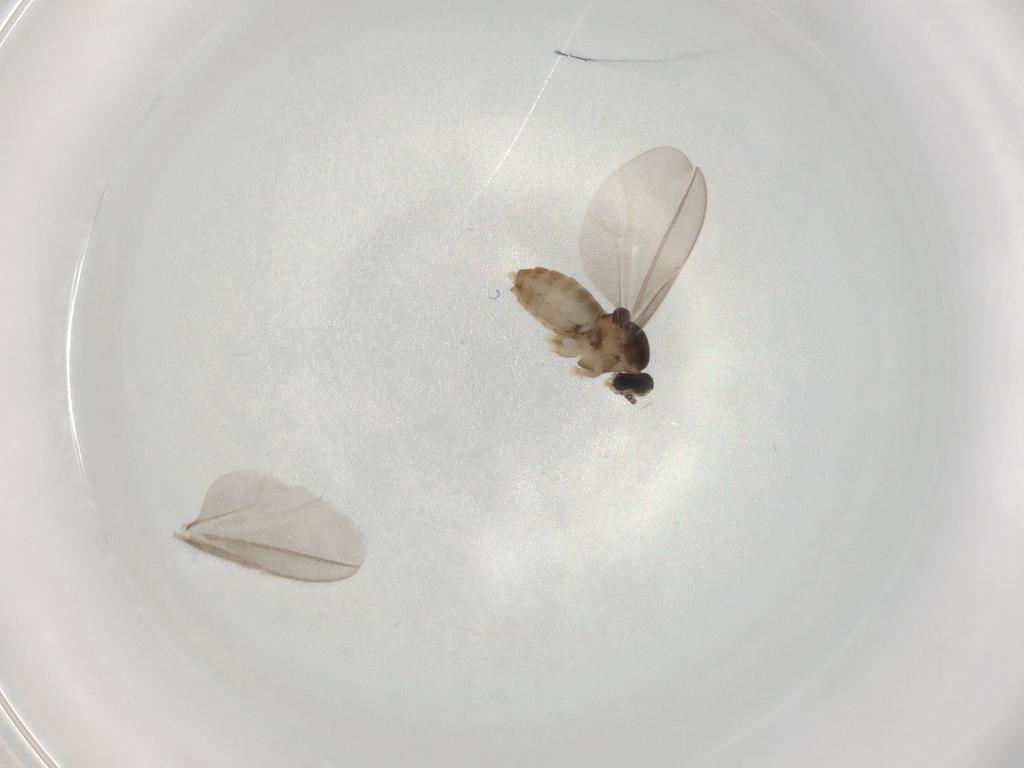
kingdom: Animalia
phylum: Arthropoda
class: Insecta
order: Diptera
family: Cecidomyiidae
